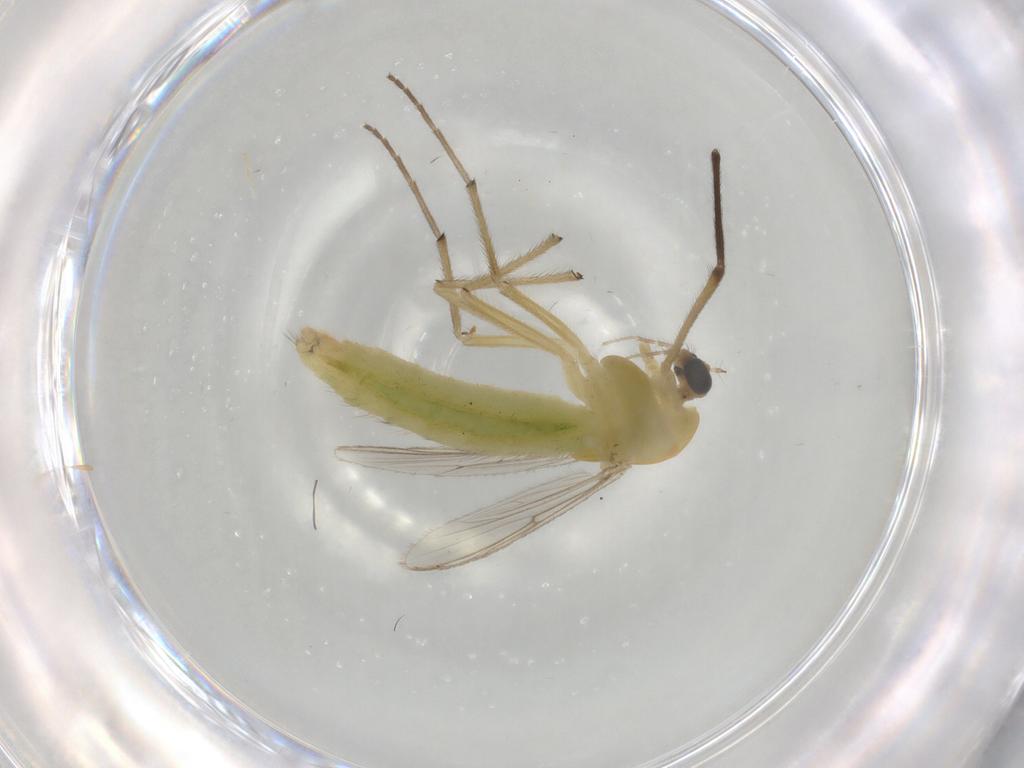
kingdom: Animalia
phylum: Arthropoda
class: Insecta
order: Diptera
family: Chironomidae
